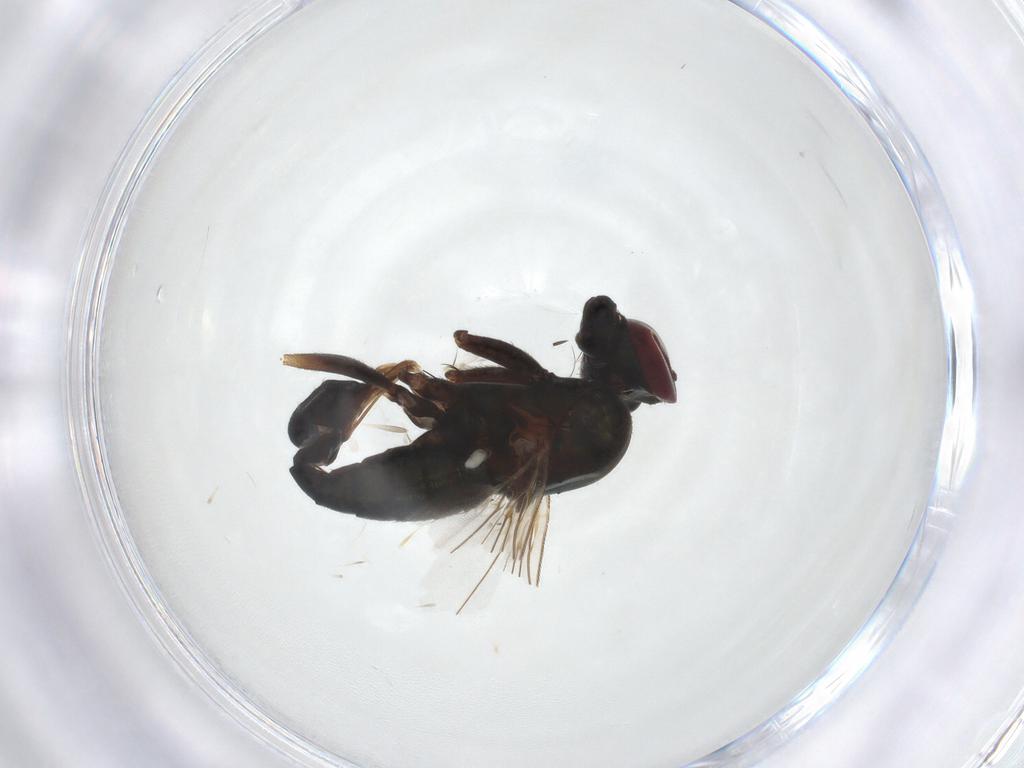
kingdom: Animalia
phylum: Arthropoda
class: Insecta
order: Diptera
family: Dolichopodidae
